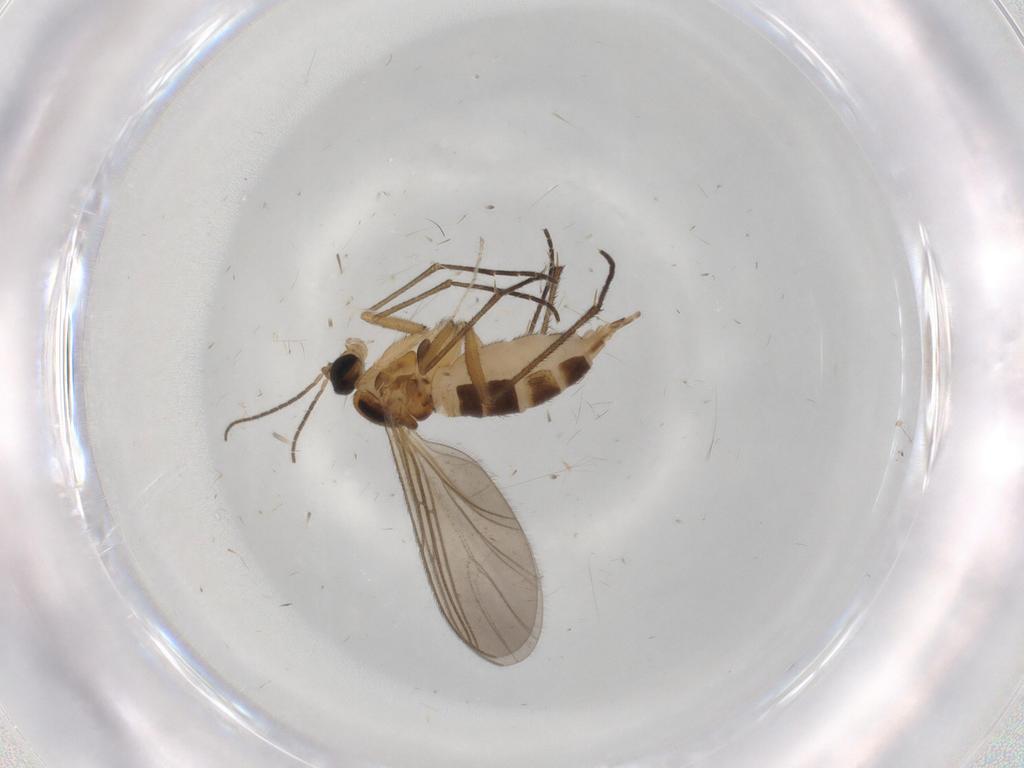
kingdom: Animalia
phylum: Arthropoda
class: Insecta
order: Diptera
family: Cecidomyiidae
